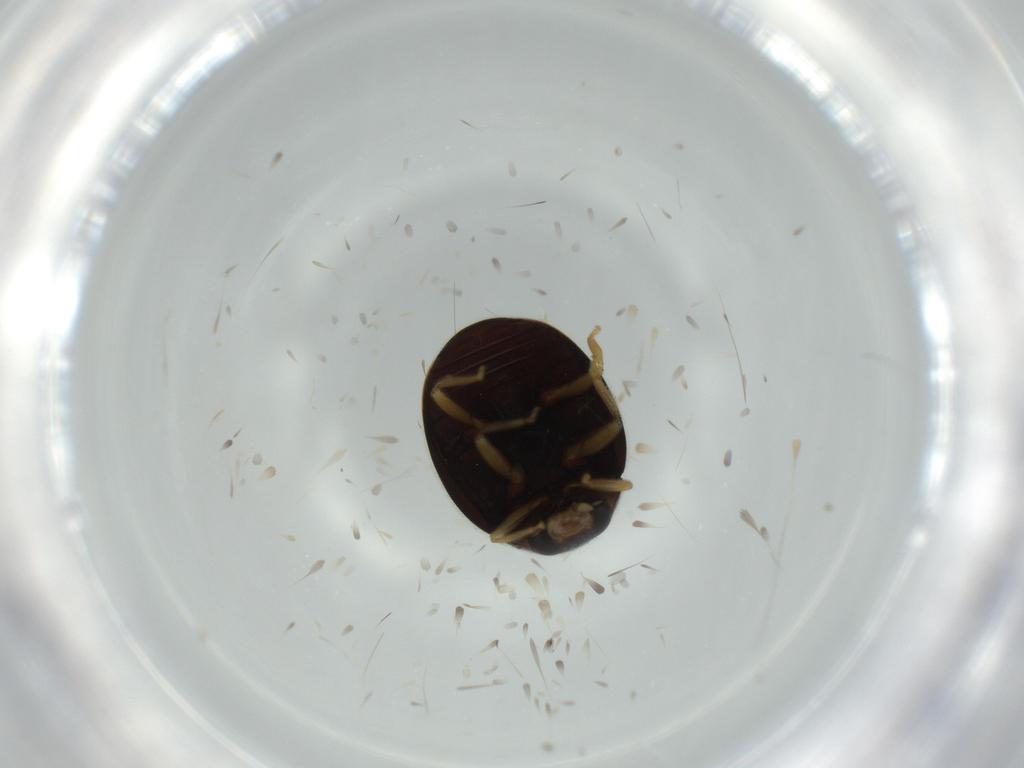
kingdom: Animalia
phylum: Arthropoda
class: Insecta
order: Coleoptera
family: Coccinellidae
